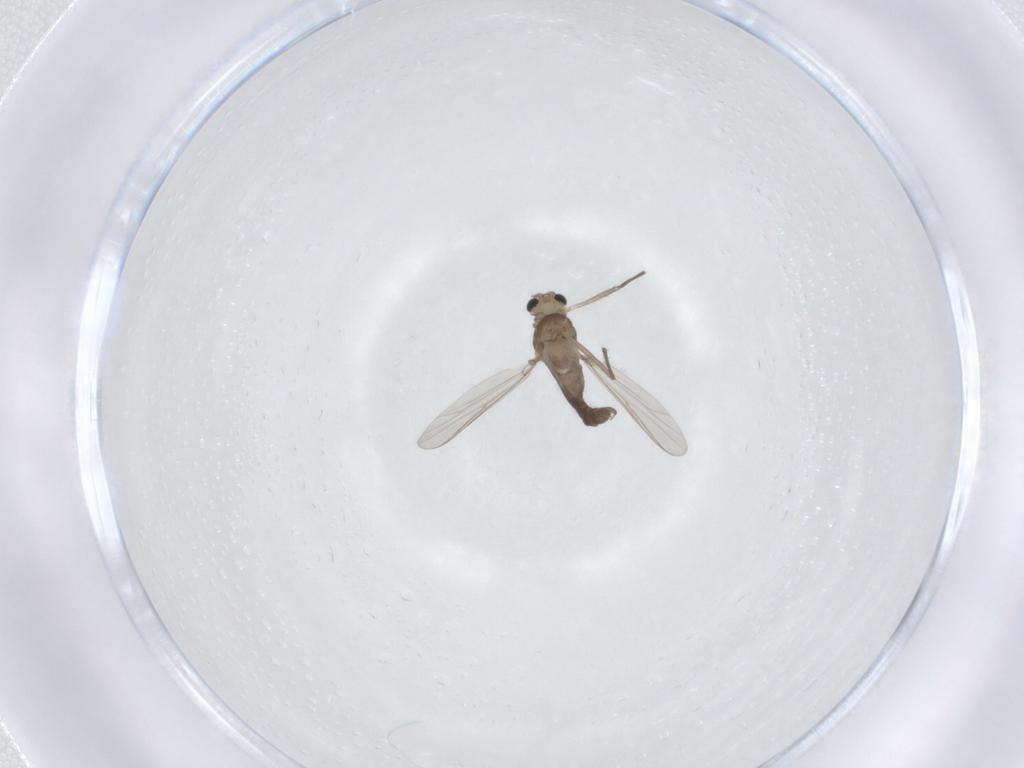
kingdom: Animalia
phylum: Arthropoda
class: Insecta
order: Diptera
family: Chironomidae
